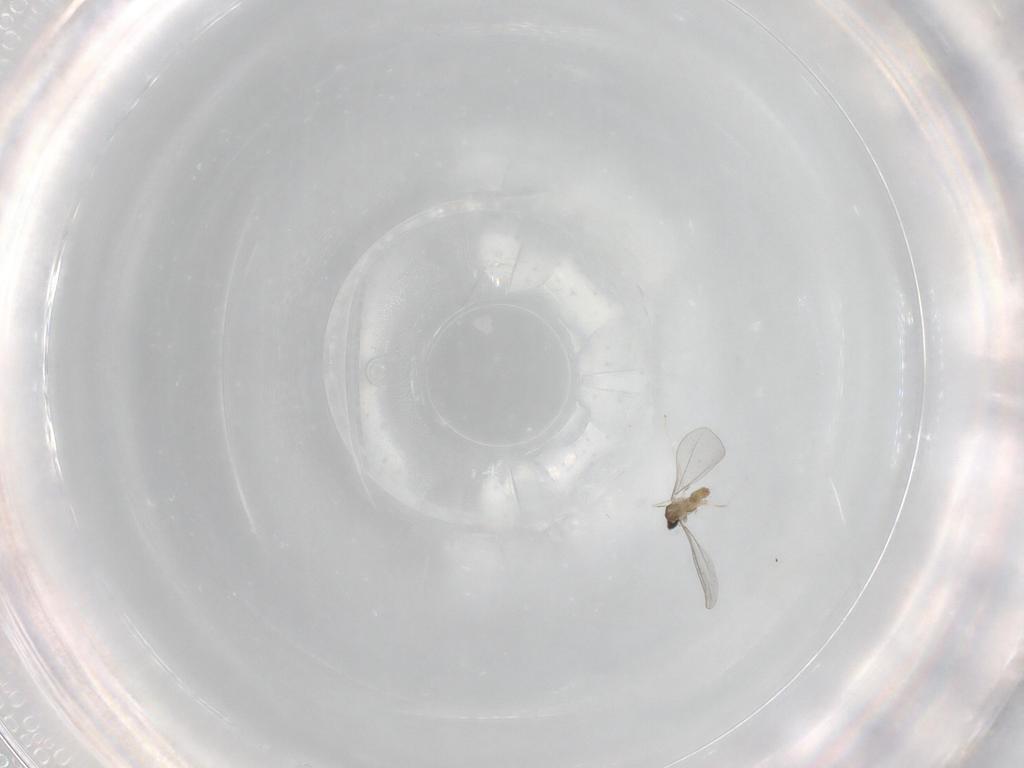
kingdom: Animalia
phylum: Arthropoda
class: Insecta
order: Diptera
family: Cecidomyiidae
